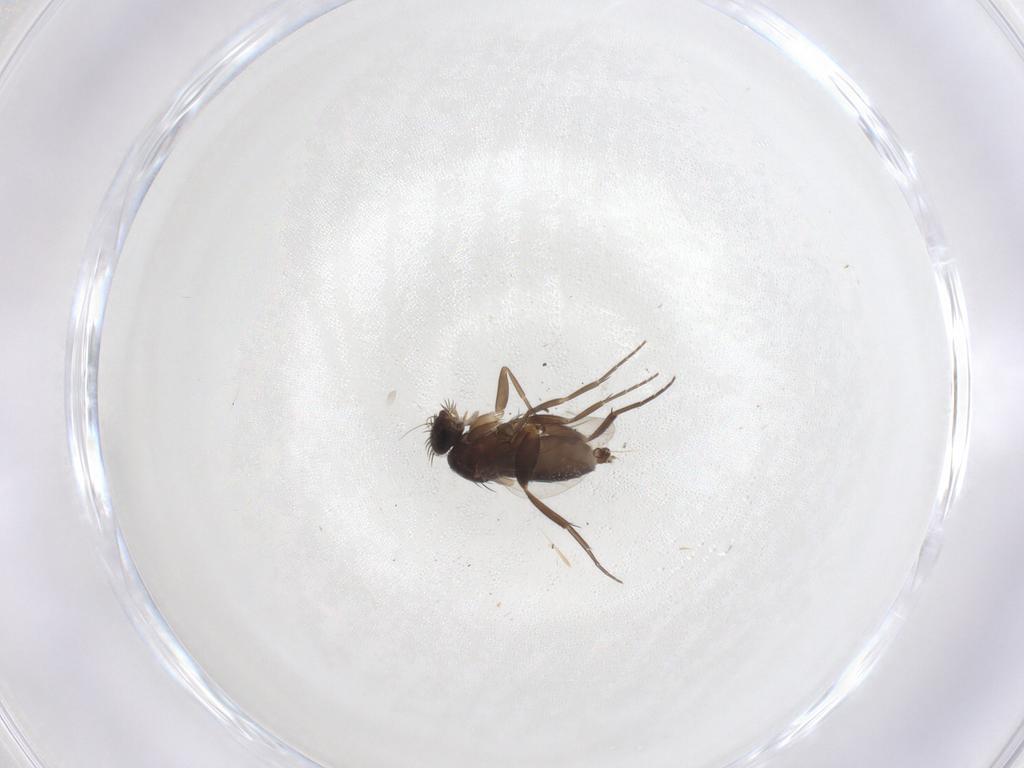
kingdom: Animalia
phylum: Arthropoda
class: Insecta
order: Diptera
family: Phoridae
